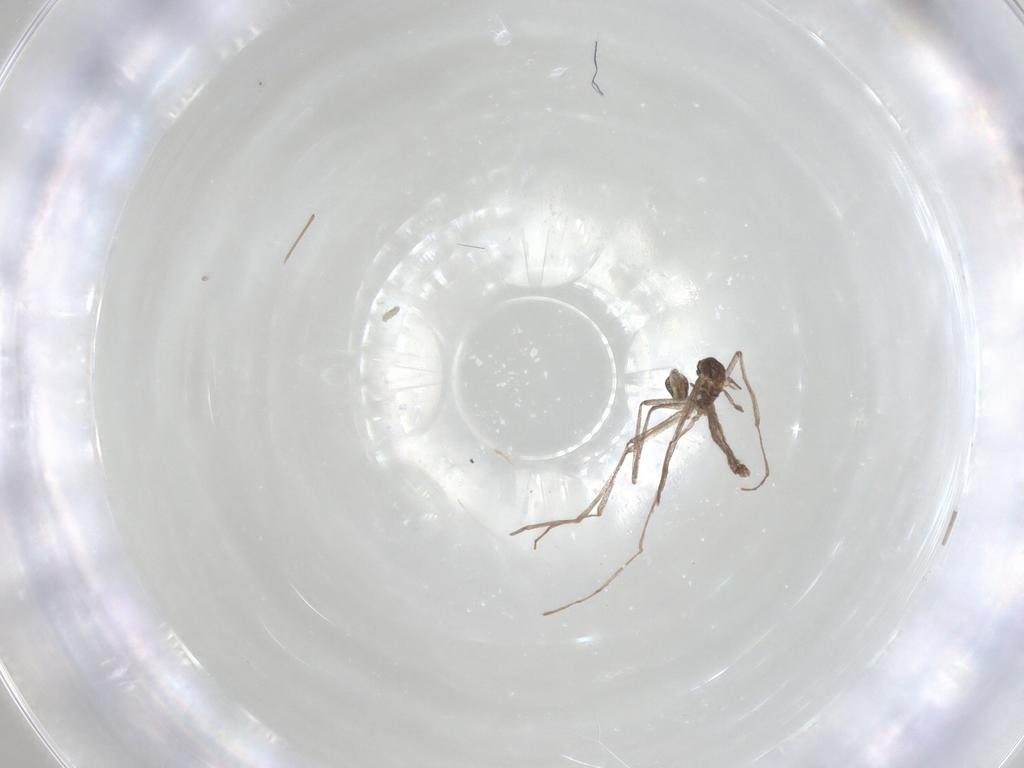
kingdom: Animalia
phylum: Arthropoda
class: Insecta
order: Diptera
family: Cecidomyiidae
